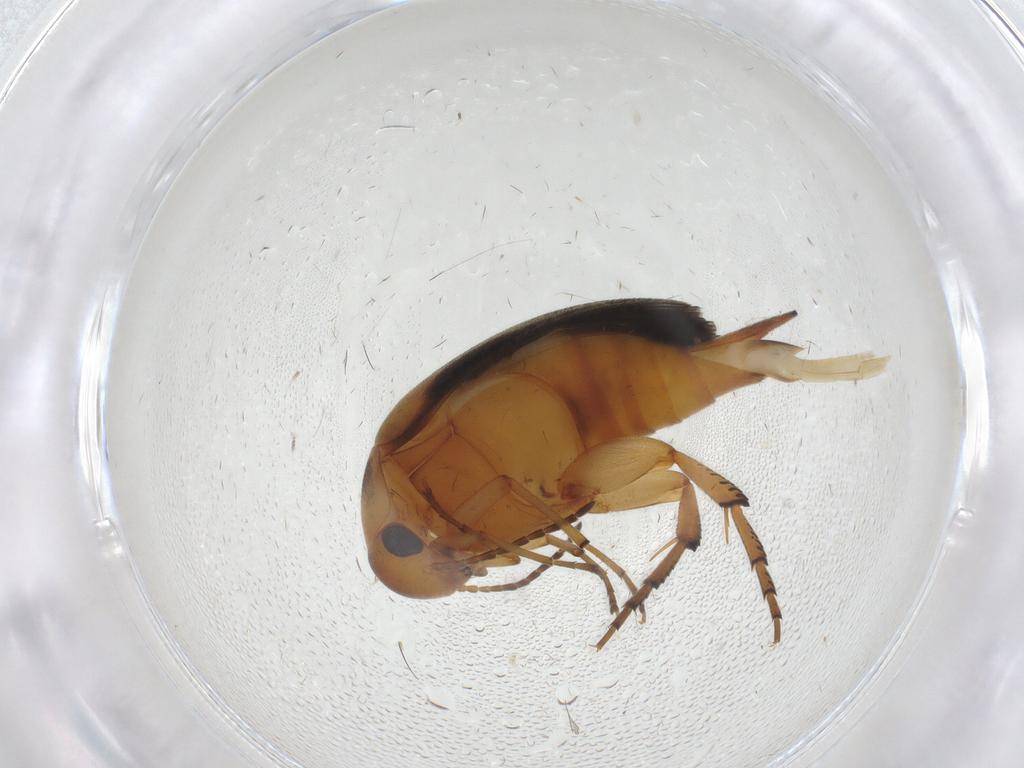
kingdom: Animalia
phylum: Arthropoda
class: Insecta
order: Coleoptera
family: Mordellidae
